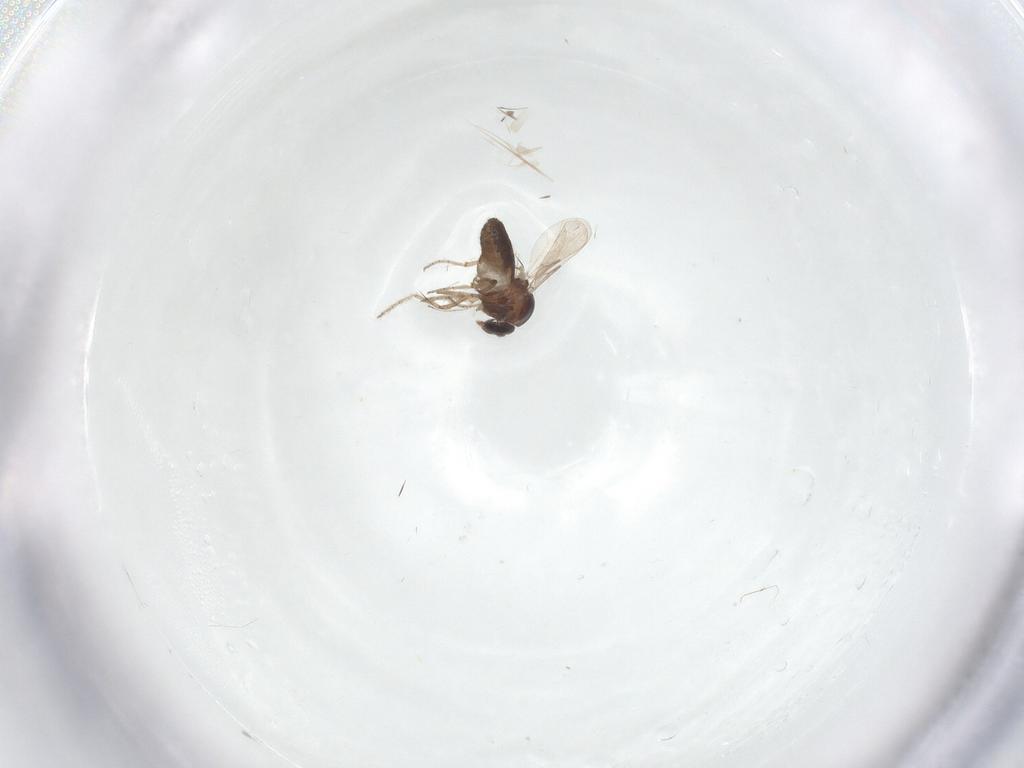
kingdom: Animalia
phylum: Arthropoda
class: Insecta
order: Diptera
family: Ceratopogonidae
